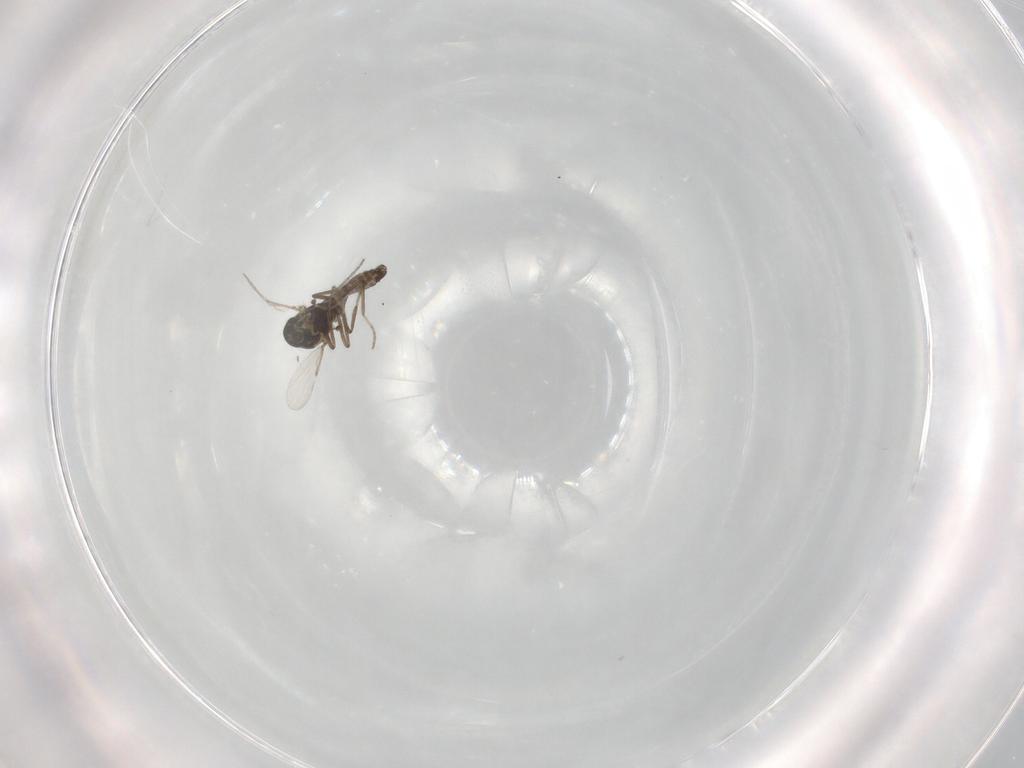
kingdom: Animalia
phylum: Arthropoda
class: Insecta
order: Diptera
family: Ceratopogonidae
